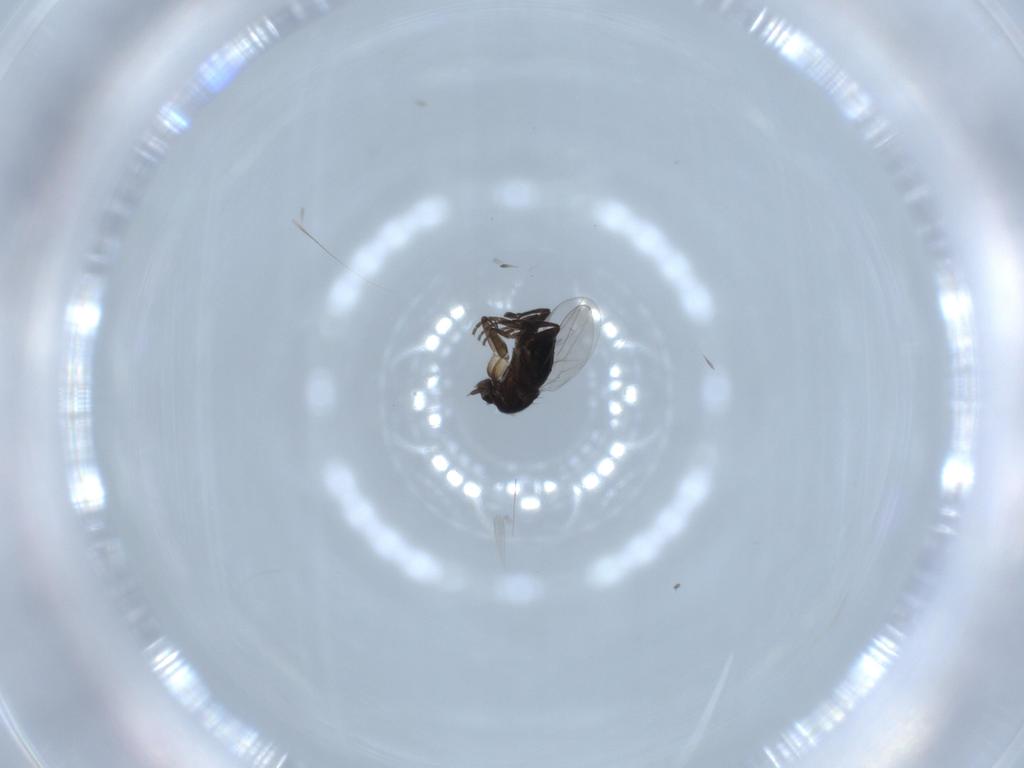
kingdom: Animalia
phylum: Arthropoda
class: Insecta
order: Diptera
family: Phoridae
